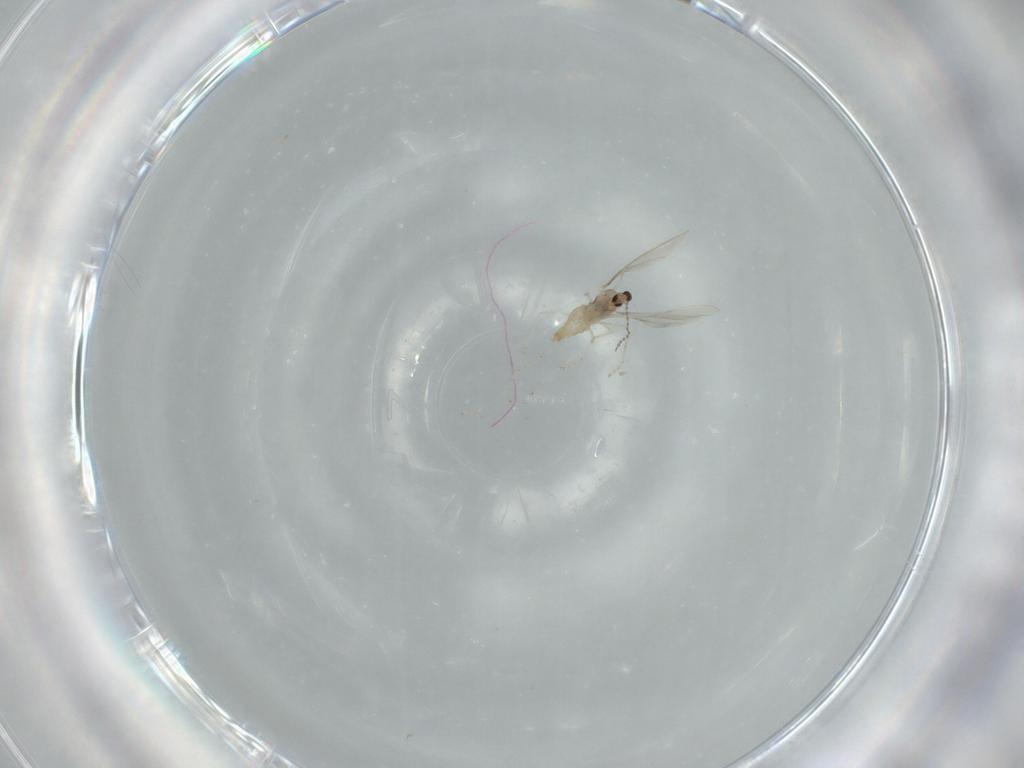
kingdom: Animalia
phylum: Arthropoda
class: Insecta
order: Diptera
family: Cecidomyiidae
